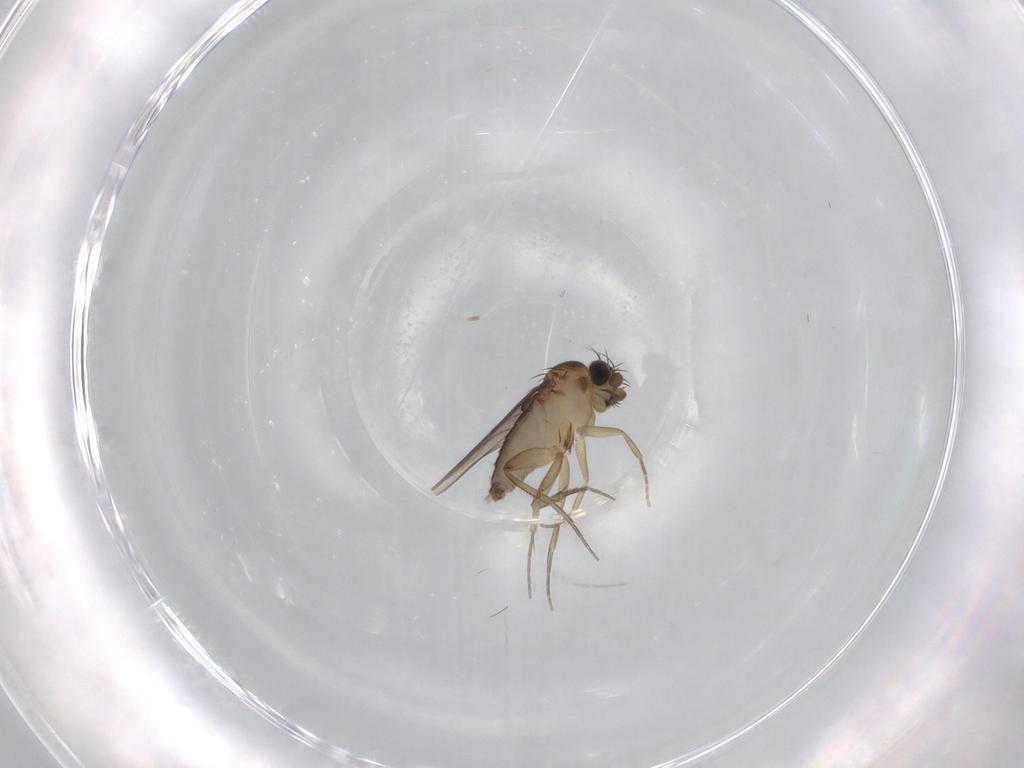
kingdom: Animalia
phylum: Arthropoda
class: Insecta
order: Diptera
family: Phoridae
